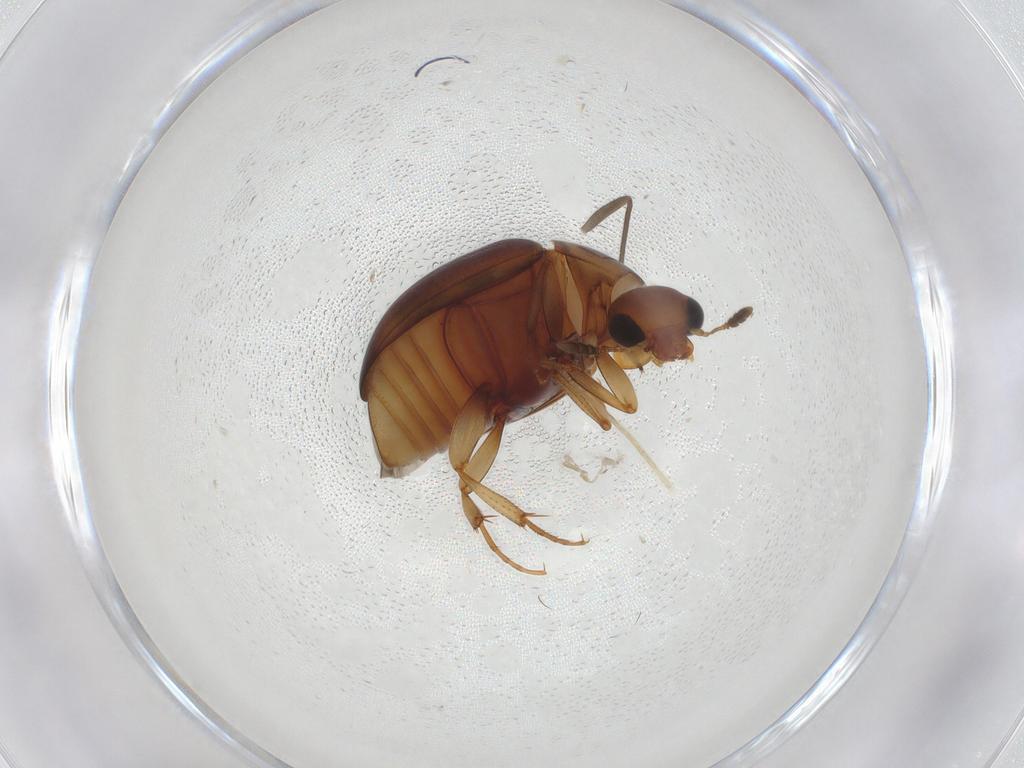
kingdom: Animalia
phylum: Arthropoda
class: Insecta
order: Coleoptera
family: Nitidulidae
